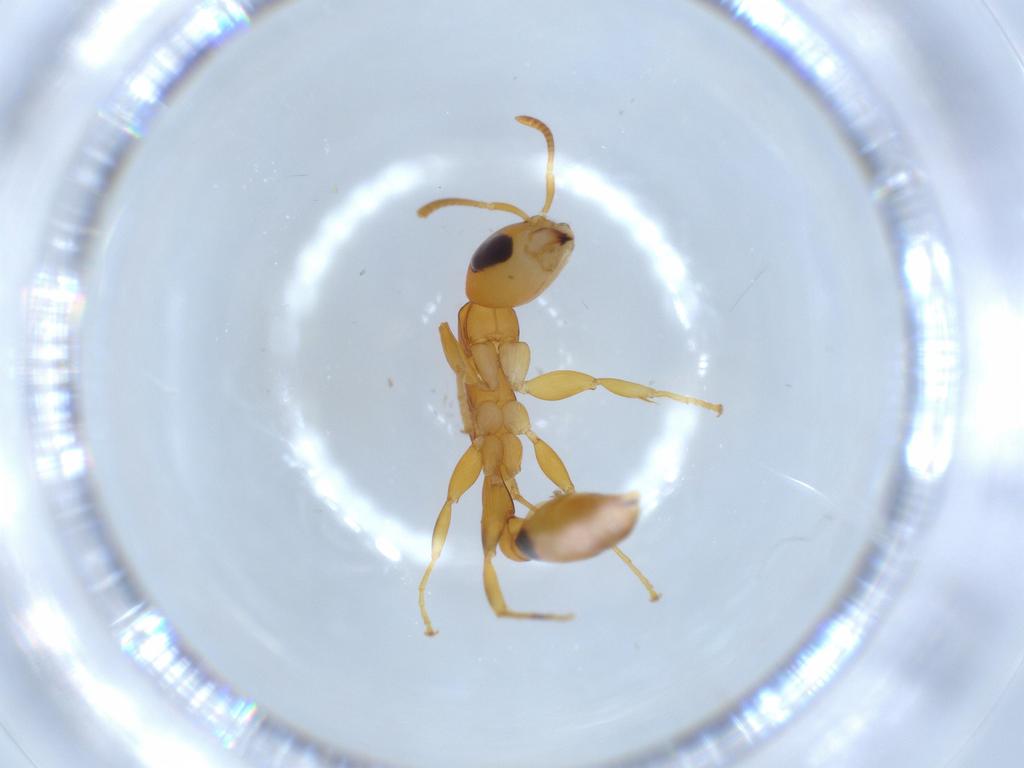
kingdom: Animalia
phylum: Arthropoda
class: Insecta
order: Hymenoptera
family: Formicidae
